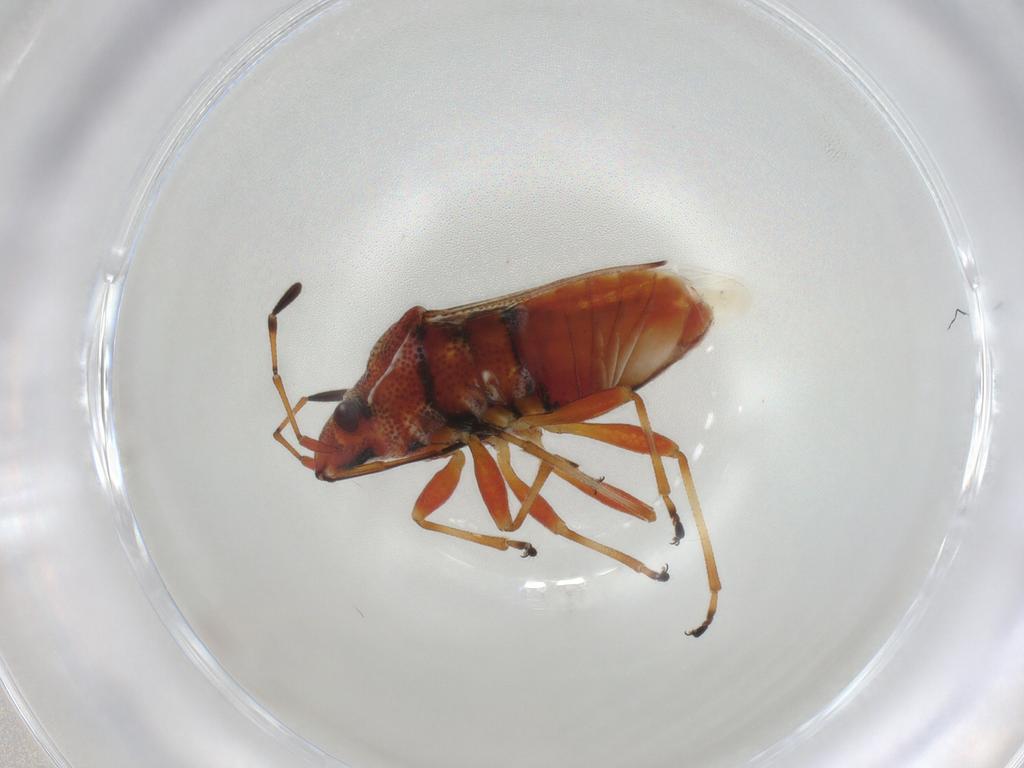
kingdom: Animalia
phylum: Arthropoda
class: Insecta
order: Hemiptera
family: Lygaeidae
